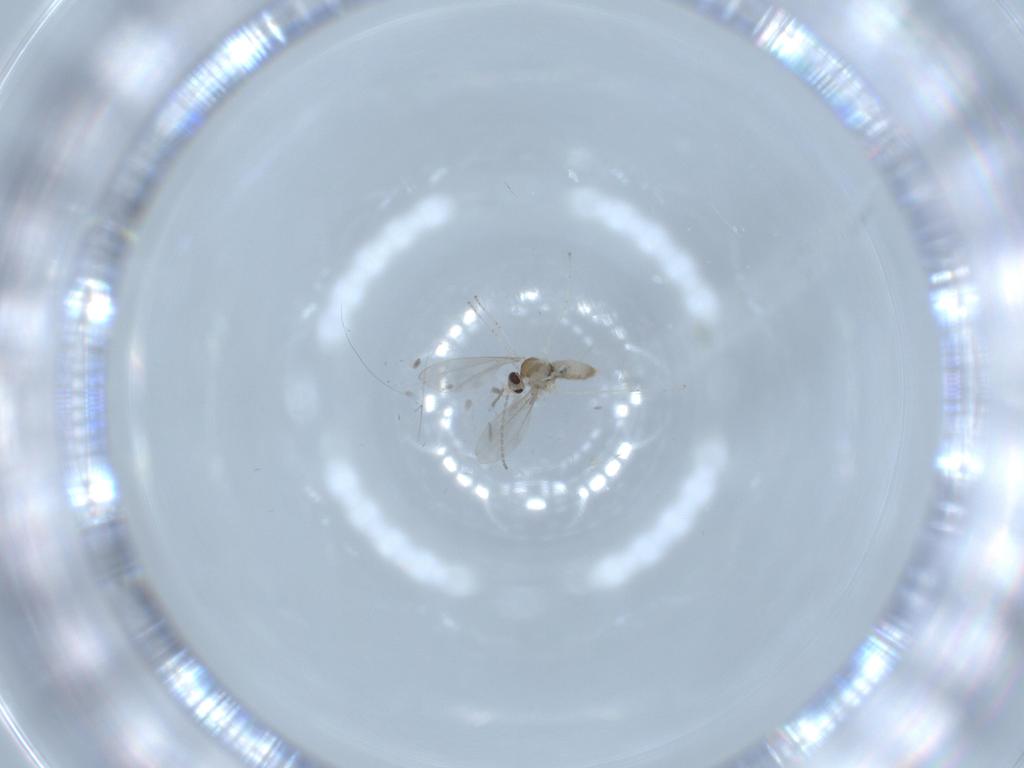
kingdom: Animalia
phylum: Arthropoda
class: Insecta
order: Diptera
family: Cecidomyiidae
